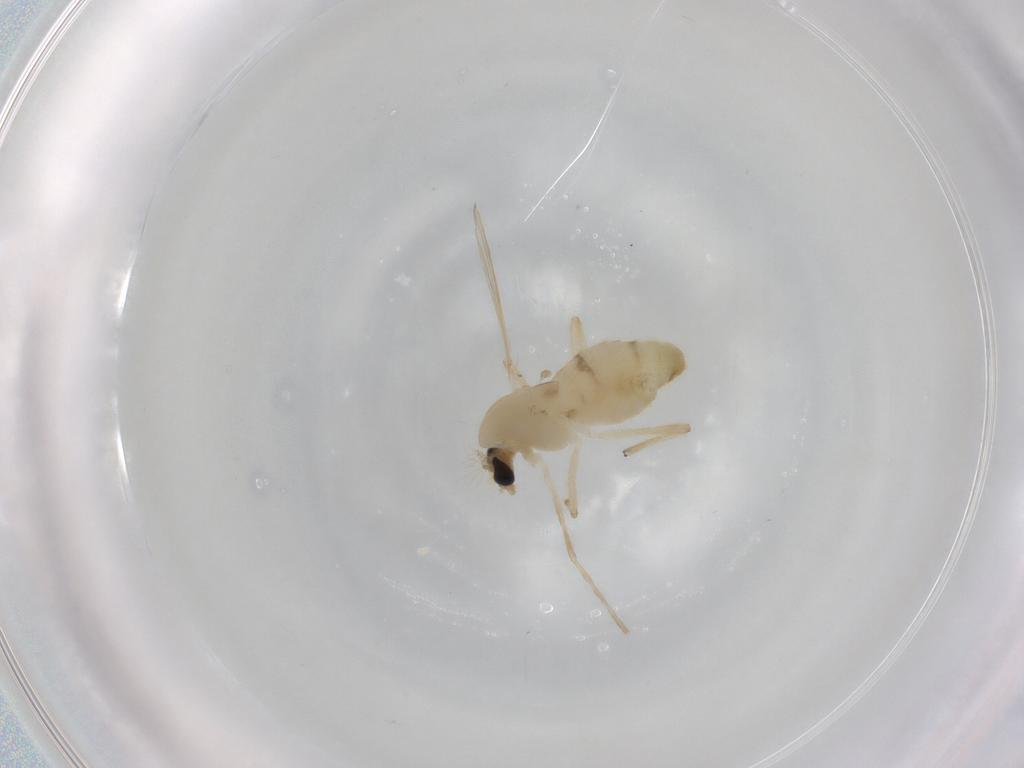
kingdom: Animalia
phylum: Arthropoda
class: Insecta
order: Diptera
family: Chironomidae
